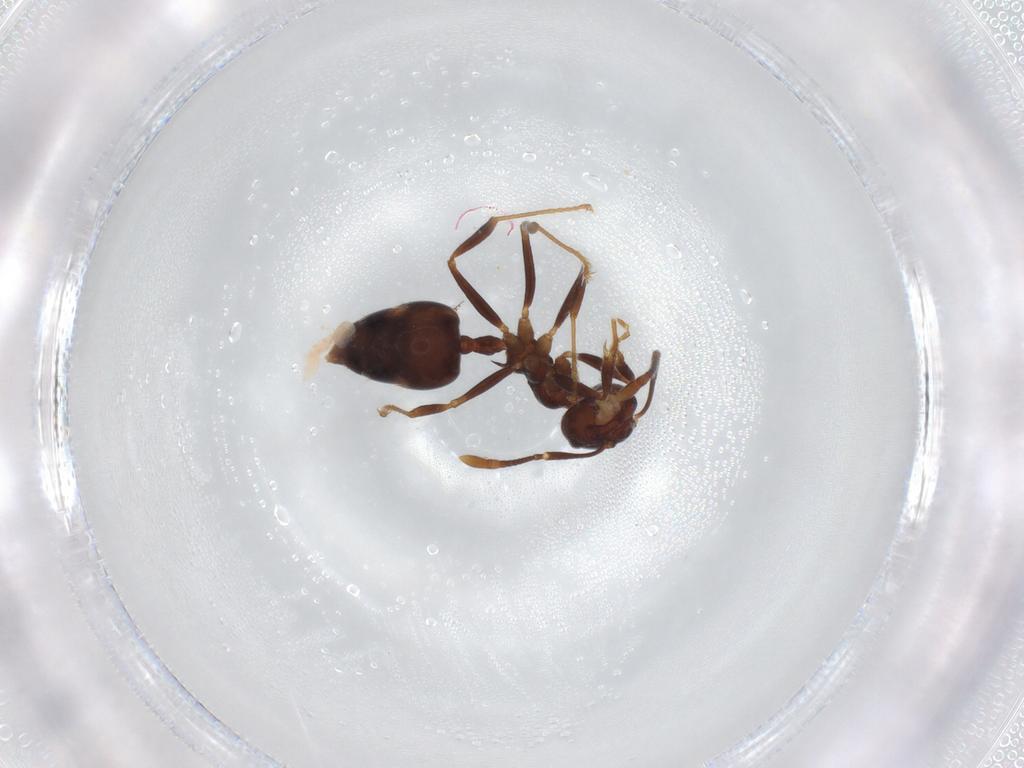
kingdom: Animalia
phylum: Arthropoda
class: Insecta
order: Hymenoptera
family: Formicidae
